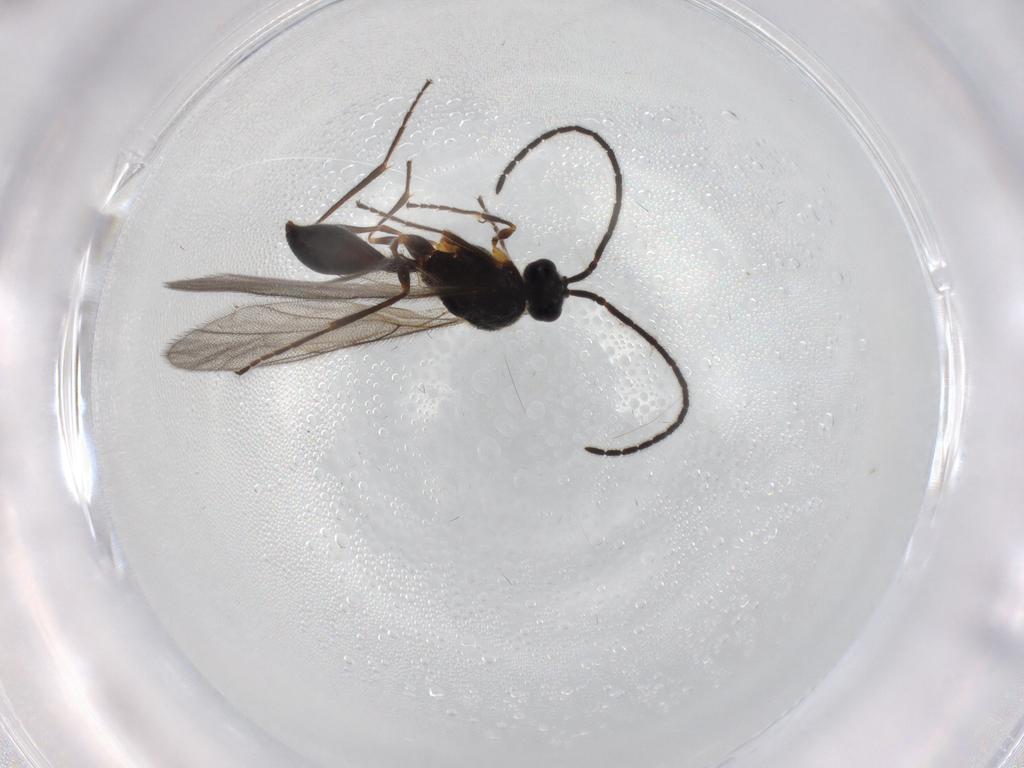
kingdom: Animalia
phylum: Arthropoda
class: Insecta
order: Hymenoptera
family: Diapriidae
